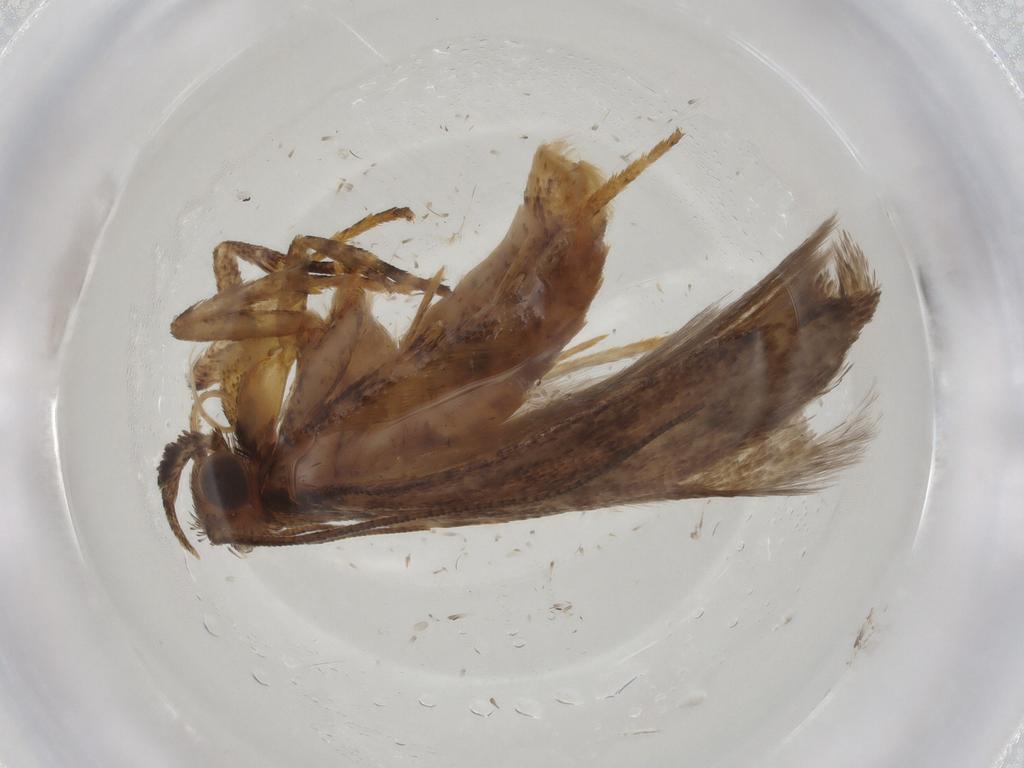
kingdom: Animalia
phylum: Arthropoda
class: Insecta
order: Lepidoptera
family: Gelechiidae
